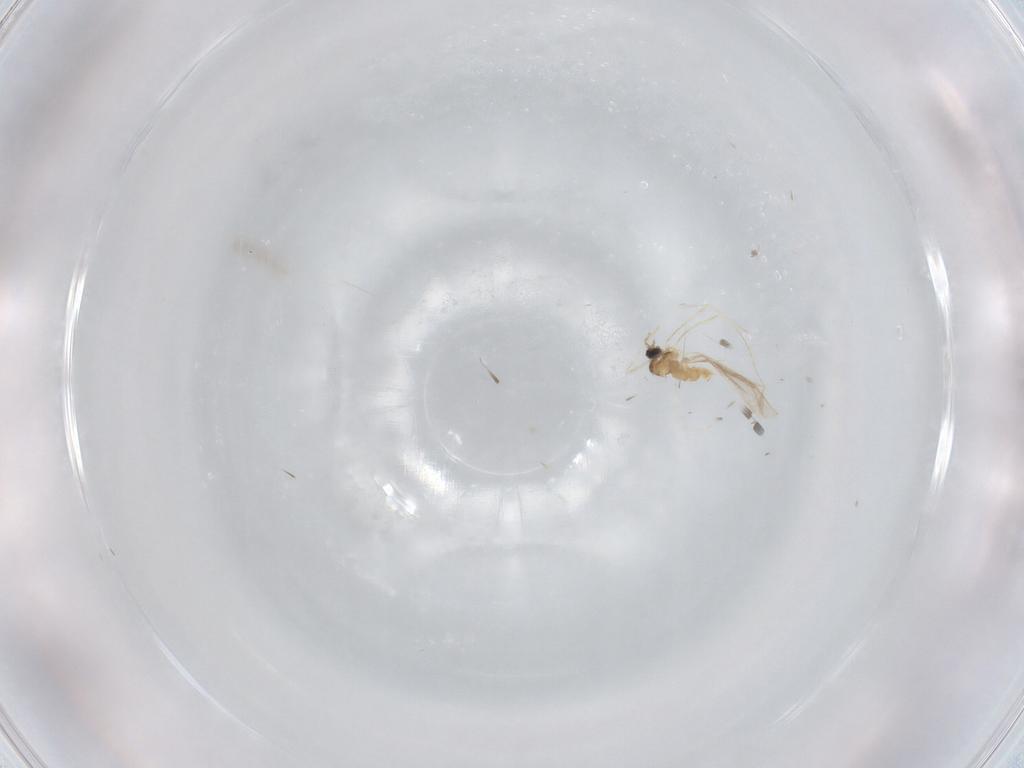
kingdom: Animalia
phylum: Arthropoda
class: Insecta
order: Diptera
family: Cecidomyiidae
